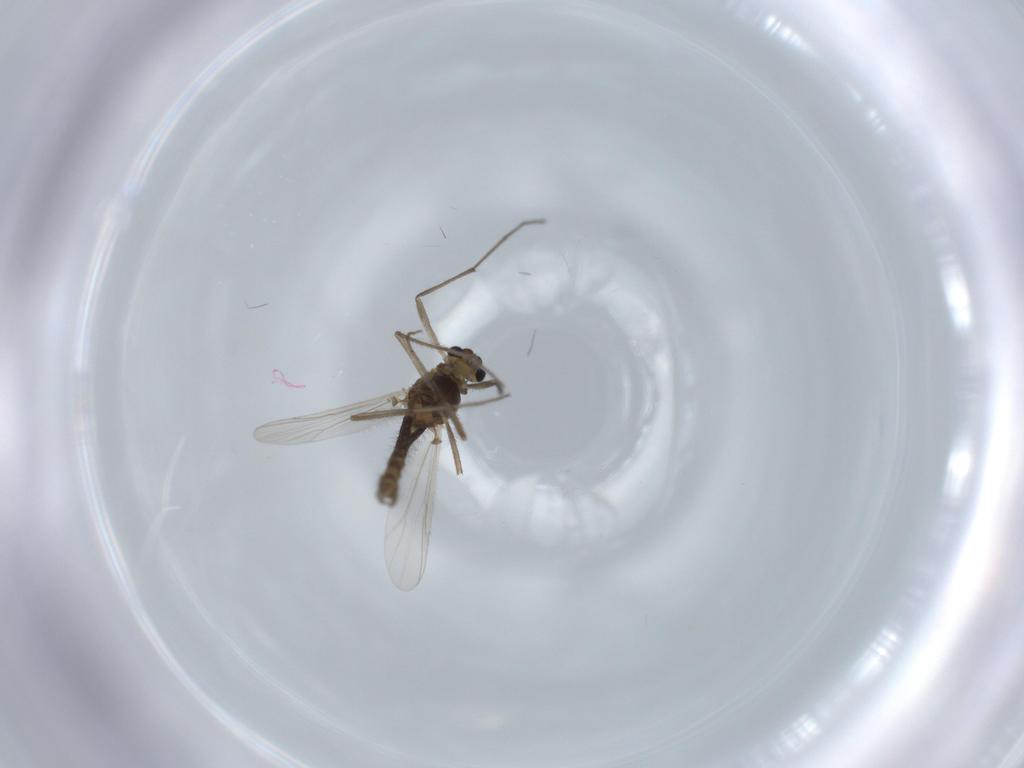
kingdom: Animalia
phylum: Arthropoda
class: Insecta
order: Diptera
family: Chironomidae
